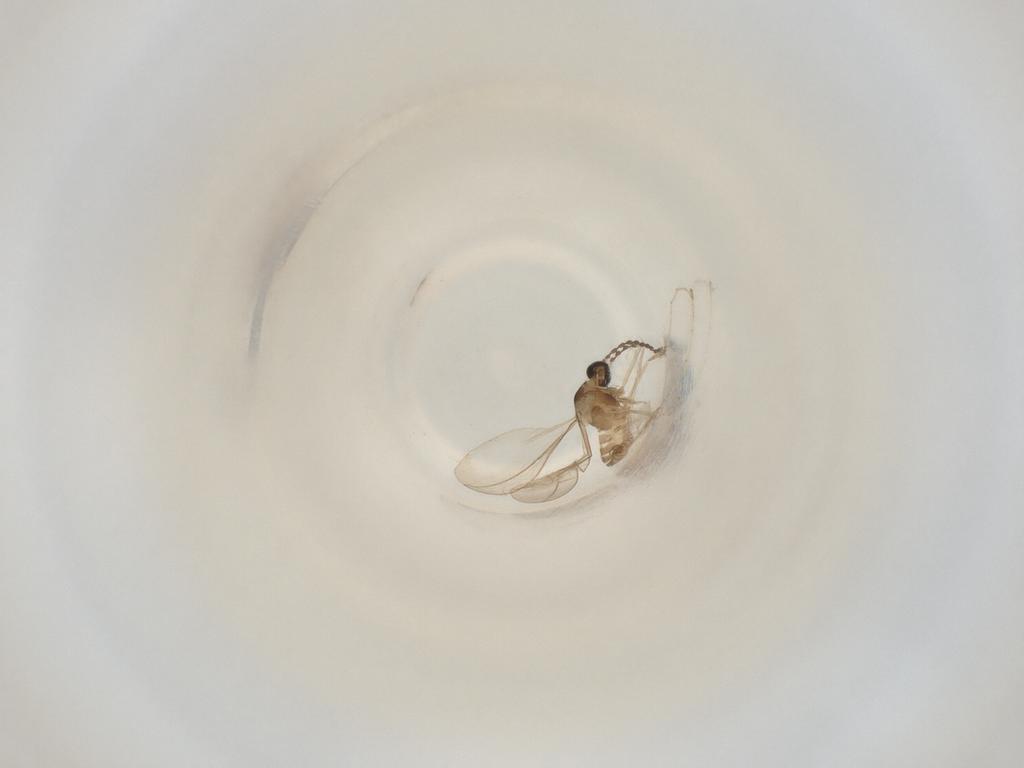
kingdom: Animalia
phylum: Arthropoda
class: Insecta
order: Diptera
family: Cecidomyiidae
